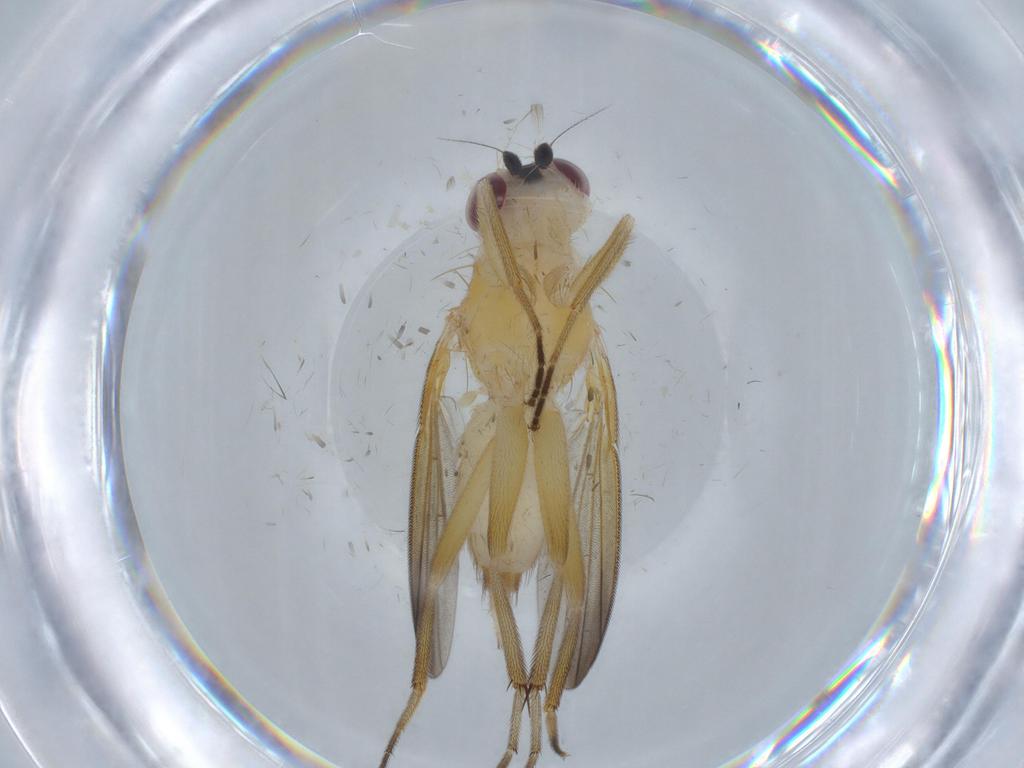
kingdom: Animalia
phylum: Arthropoda
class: Insecta
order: Diptera
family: Clusiidae
